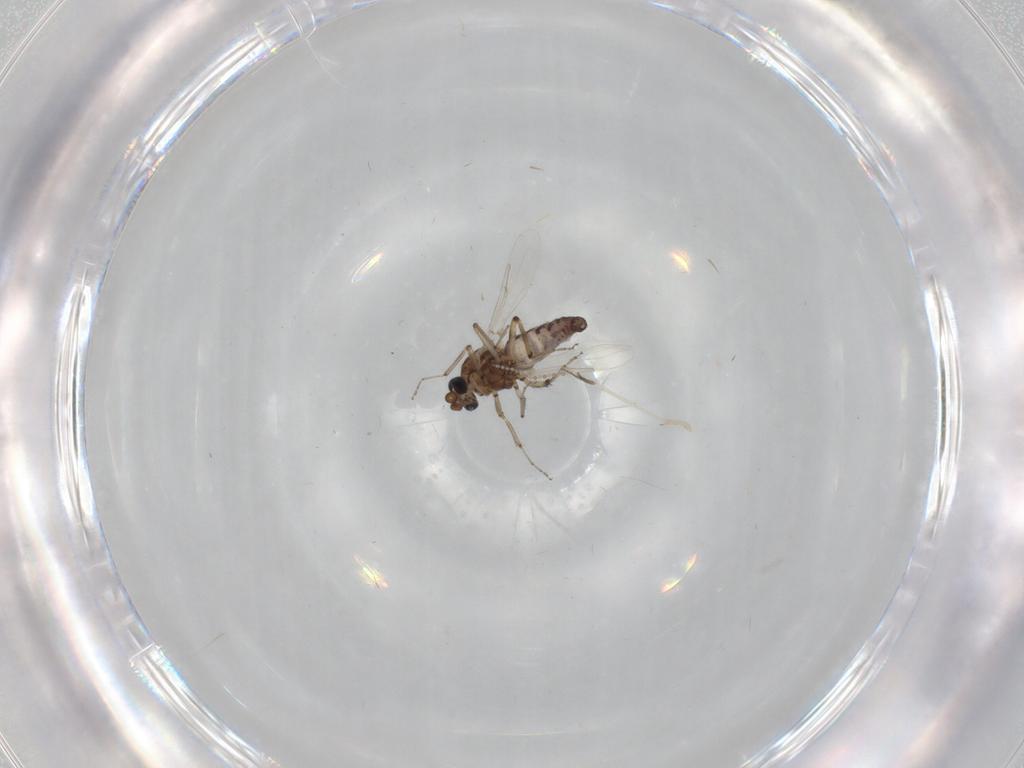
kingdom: Animalia
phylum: Arthropoda
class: Insecta
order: Diptera
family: Ceratopogonidae
